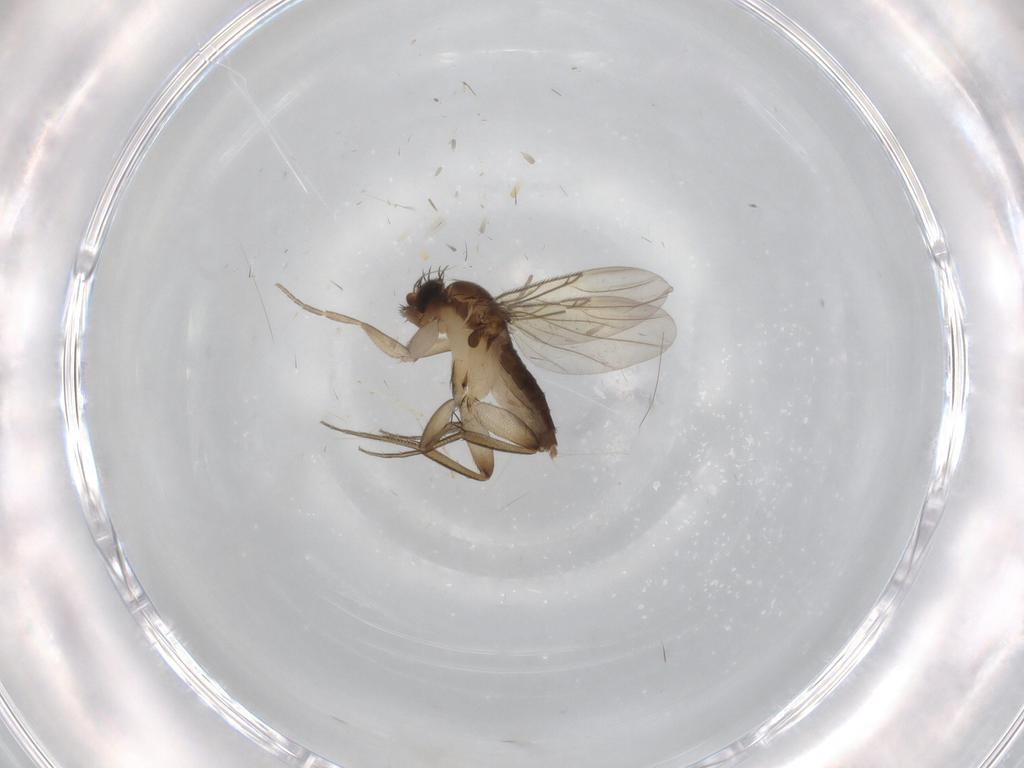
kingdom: Animalia
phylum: Arthropoda
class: Insecta
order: Diptera
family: Phoridae
